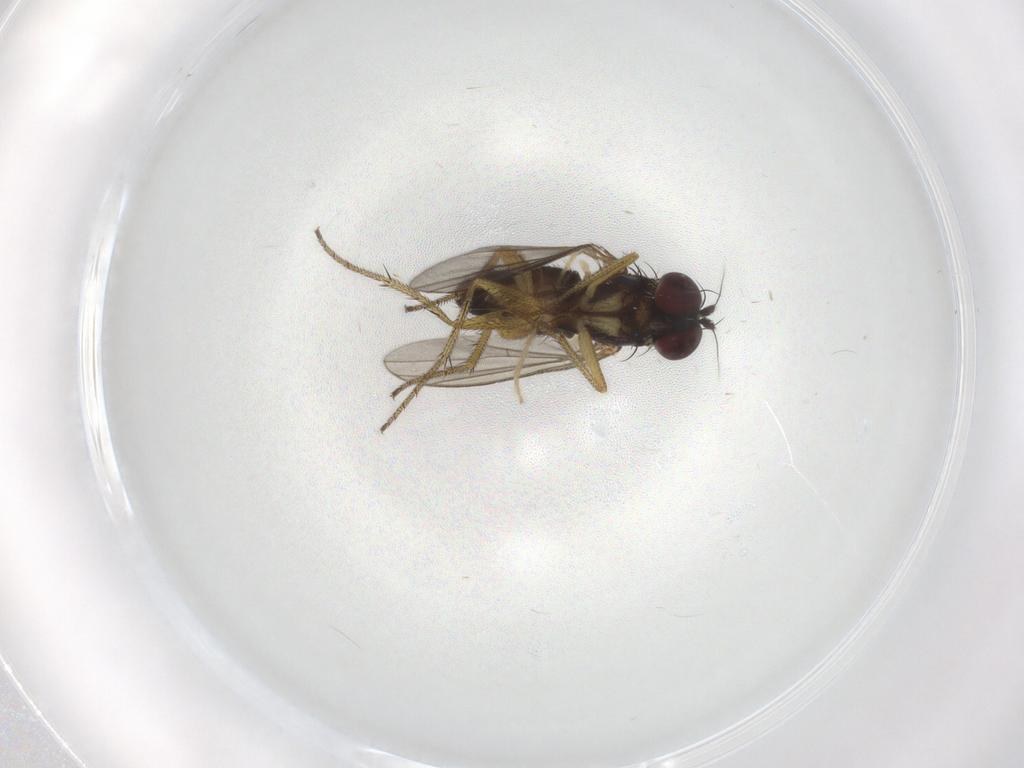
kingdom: Animalia
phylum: Arthropoda
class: Insecta
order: Diptera
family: Dolichopodidae
